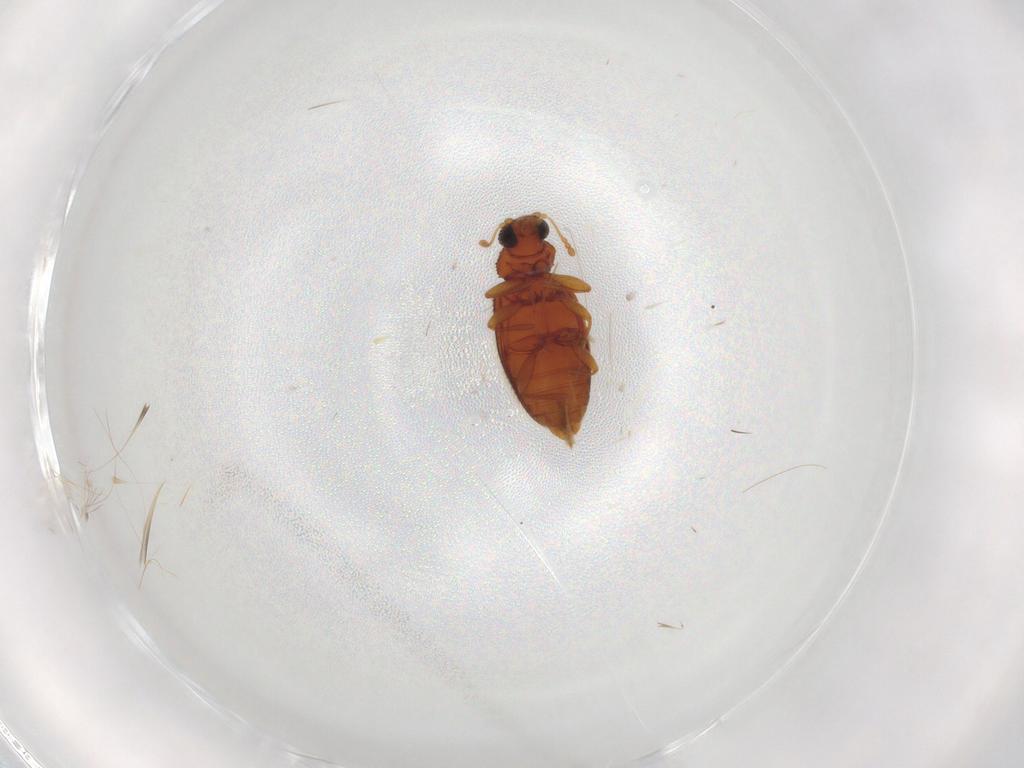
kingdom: Animalia
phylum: Arthropoda
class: Insecta
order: Coleoptera
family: Latridiidae
